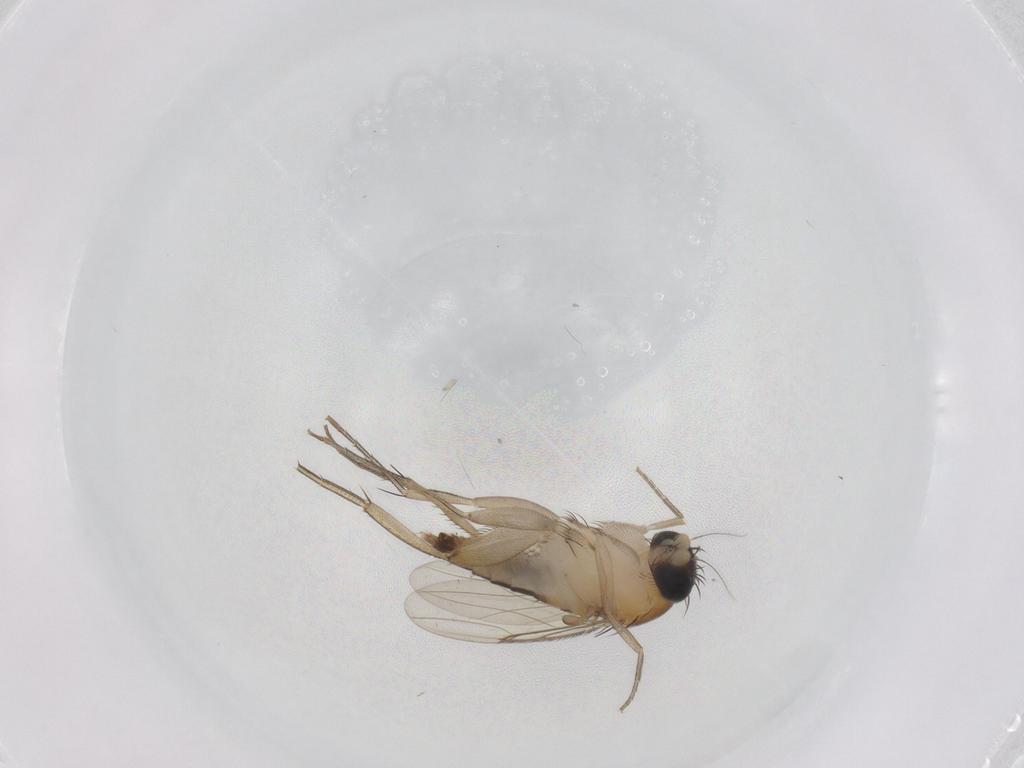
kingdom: Animalia
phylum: Arthropoda
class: Insecta
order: Diptera
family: Phoridae
